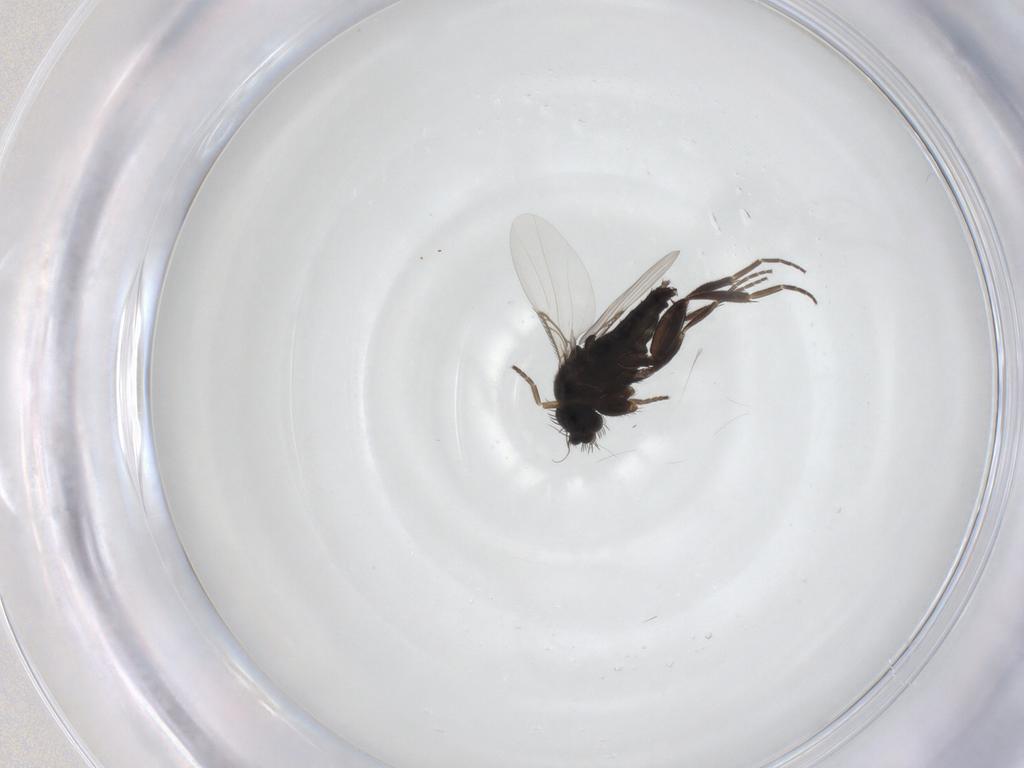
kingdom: Animalia
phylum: Arthropoda
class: Insecta
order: Diptera
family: Phoridae
